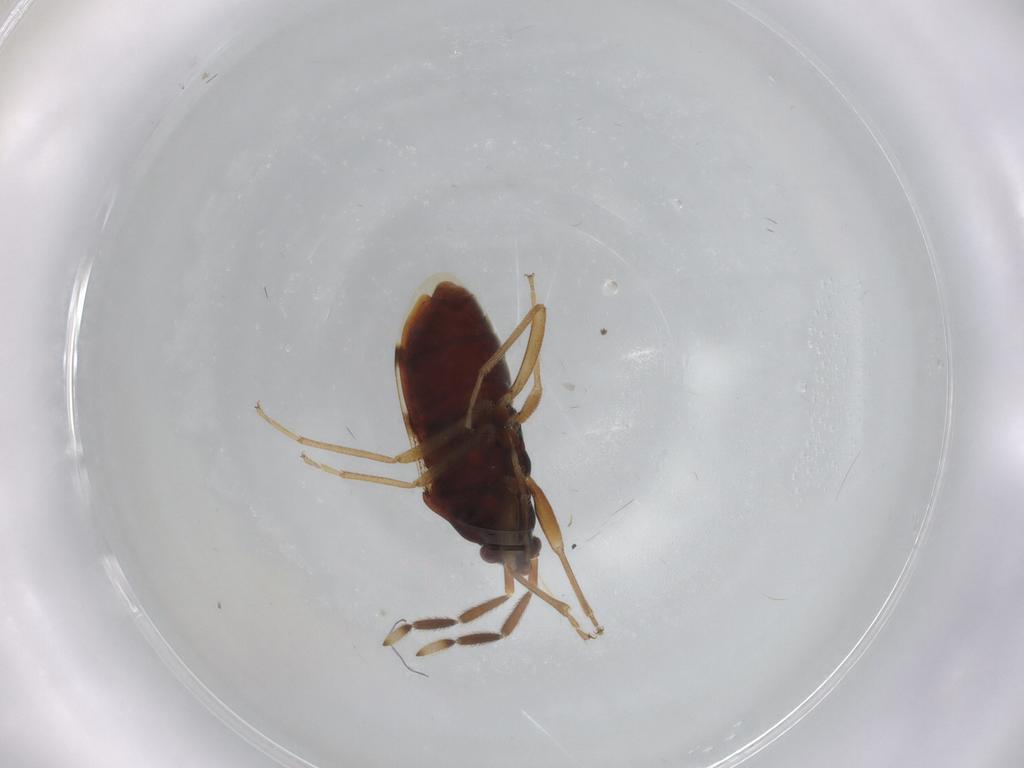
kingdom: Animalia
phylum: Arthropoda
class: Insecta
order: Hemiptera
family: Rhyparochromidae
